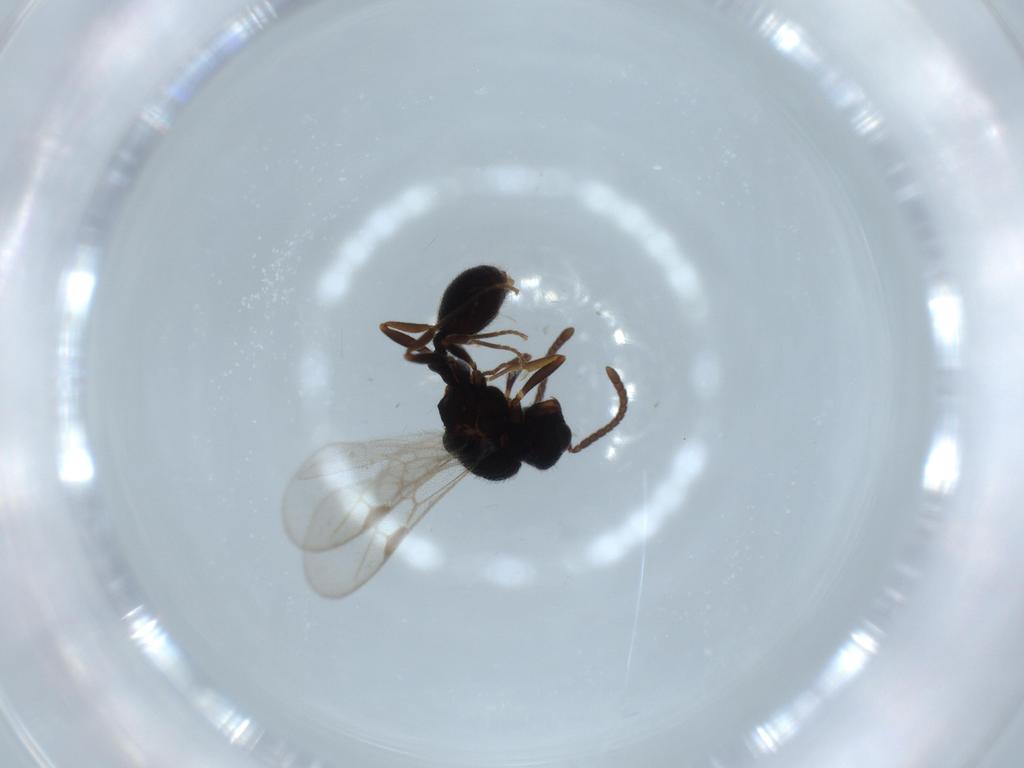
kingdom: Animalia
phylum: Arthropoda
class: Insecta
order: Hymenoptera
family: Formicidae
